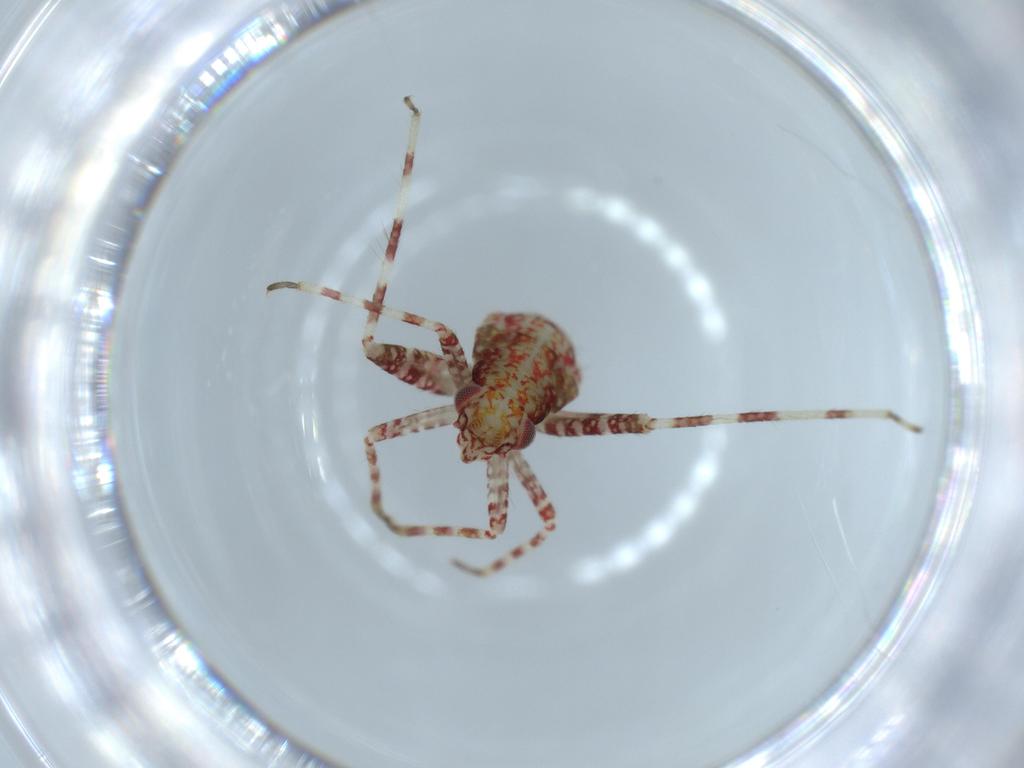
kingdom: Animalia
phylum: Arthropoda
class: Insecta
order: Hemiptera
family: Miridae
